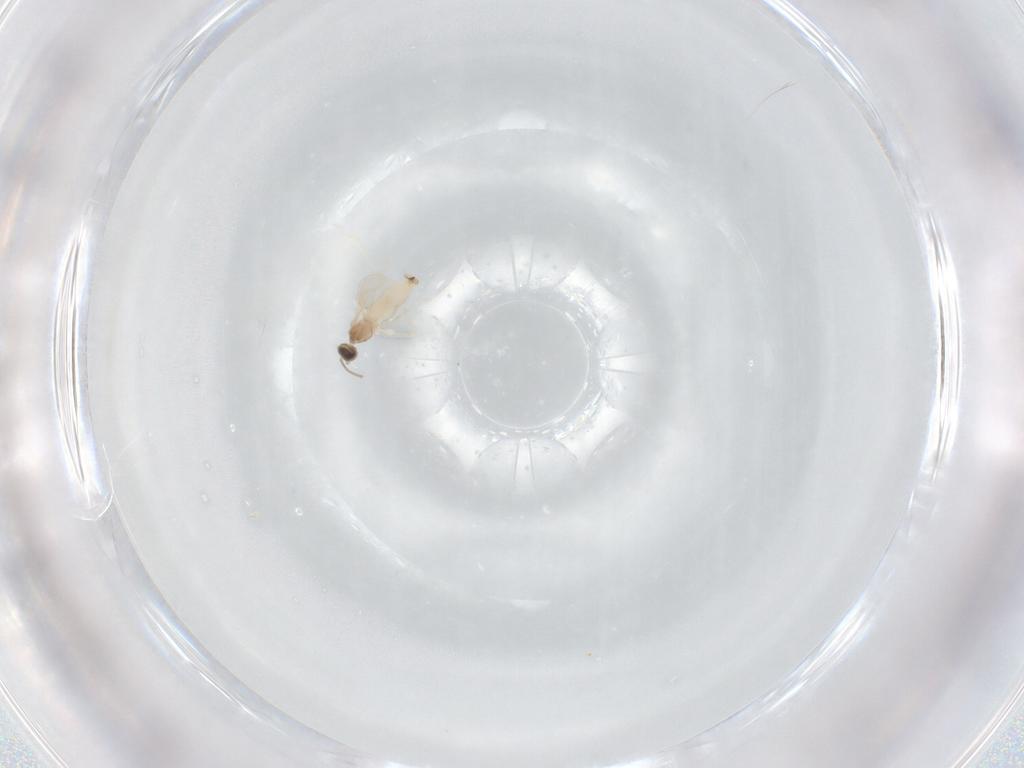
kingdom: Animalia
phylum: Arthropoda
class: Insecta
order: Diptera
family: Cecidomyiidae
